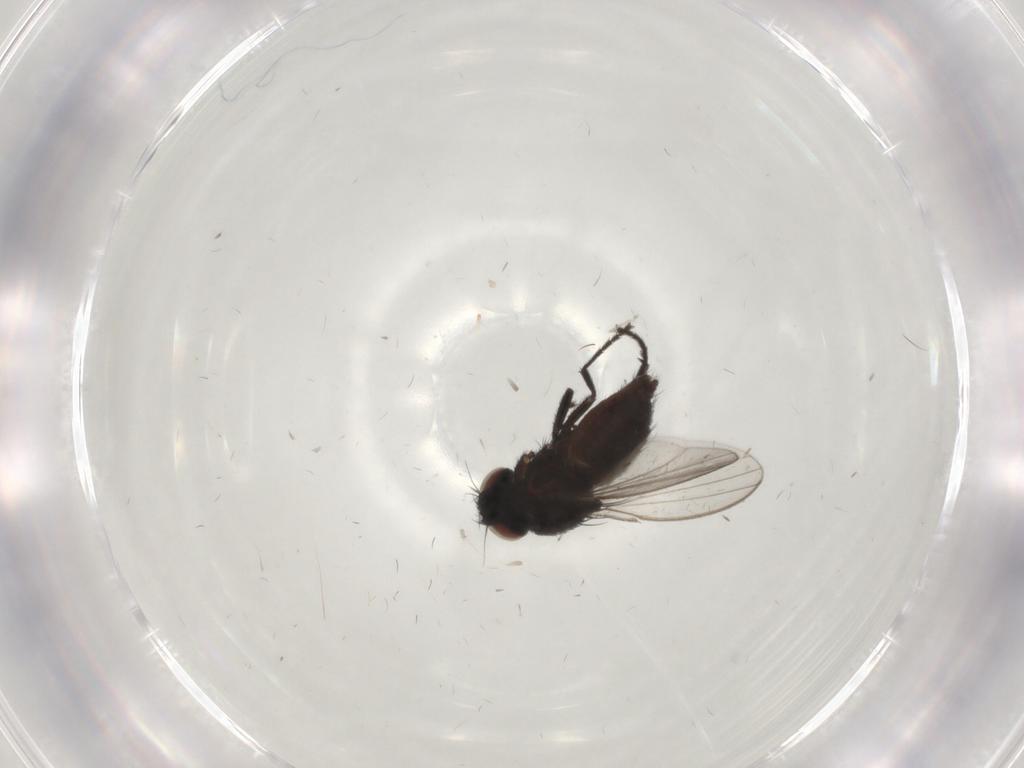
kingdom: Animalia
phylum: Arthropoda
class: Insecta
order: Diptera
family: Milichiidae
